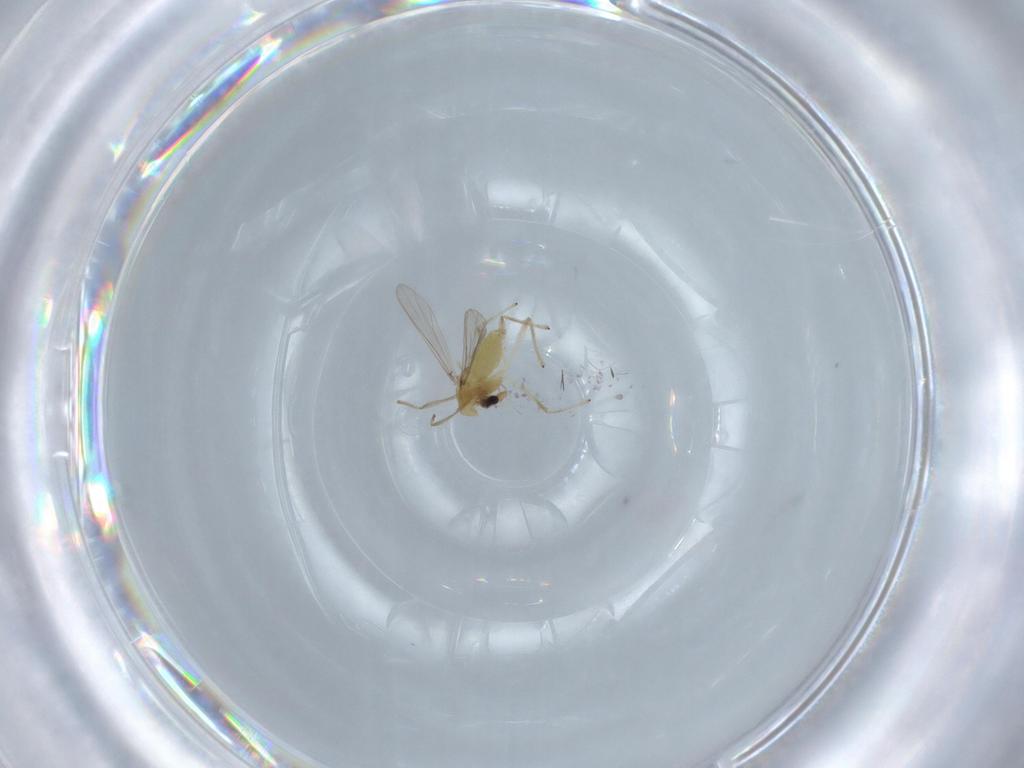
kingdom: Animalia
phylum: Arthropoda
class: Insecta
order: Diptera
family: Chironomidae
